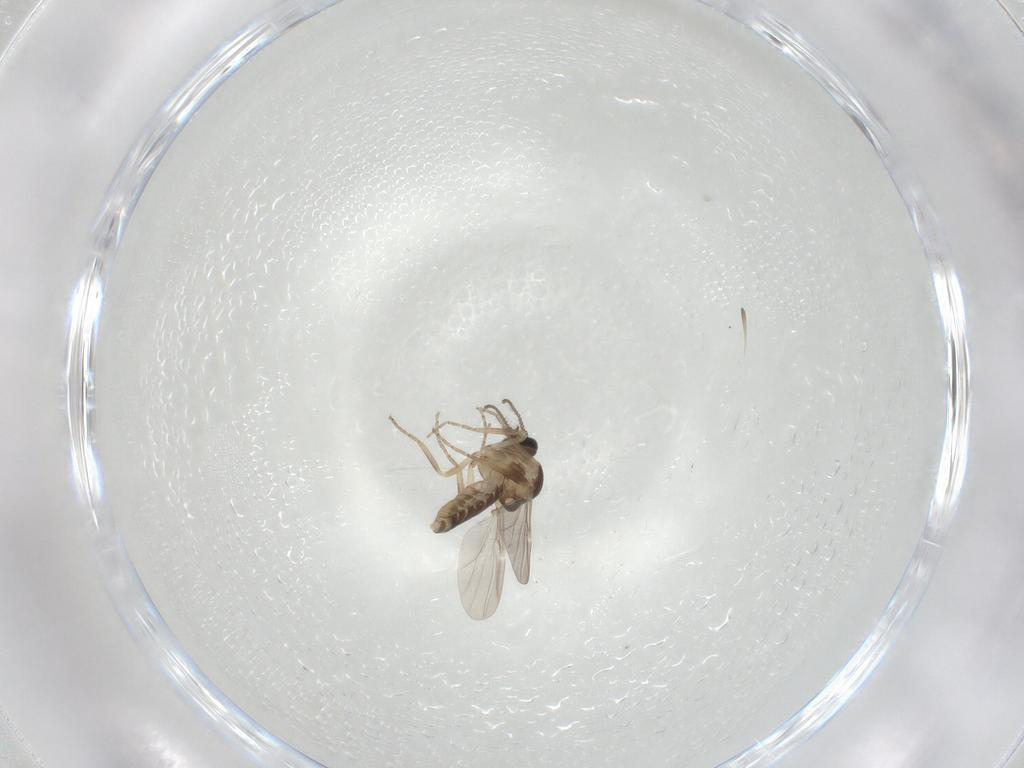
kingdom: Animalia
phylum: Arthropoda
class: Insecta
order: Diptera
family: Ceratopogonidae
